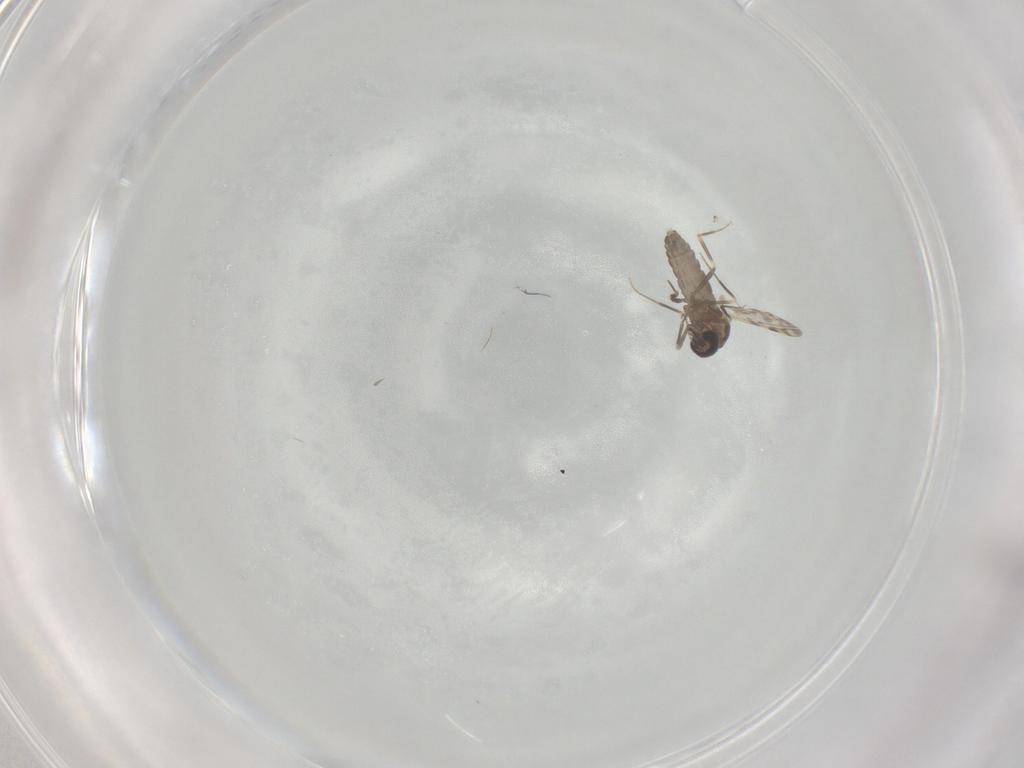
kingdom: Animalia
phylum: Arthropoda
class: Insecta
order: Diptera
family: Ceratopogonidae
